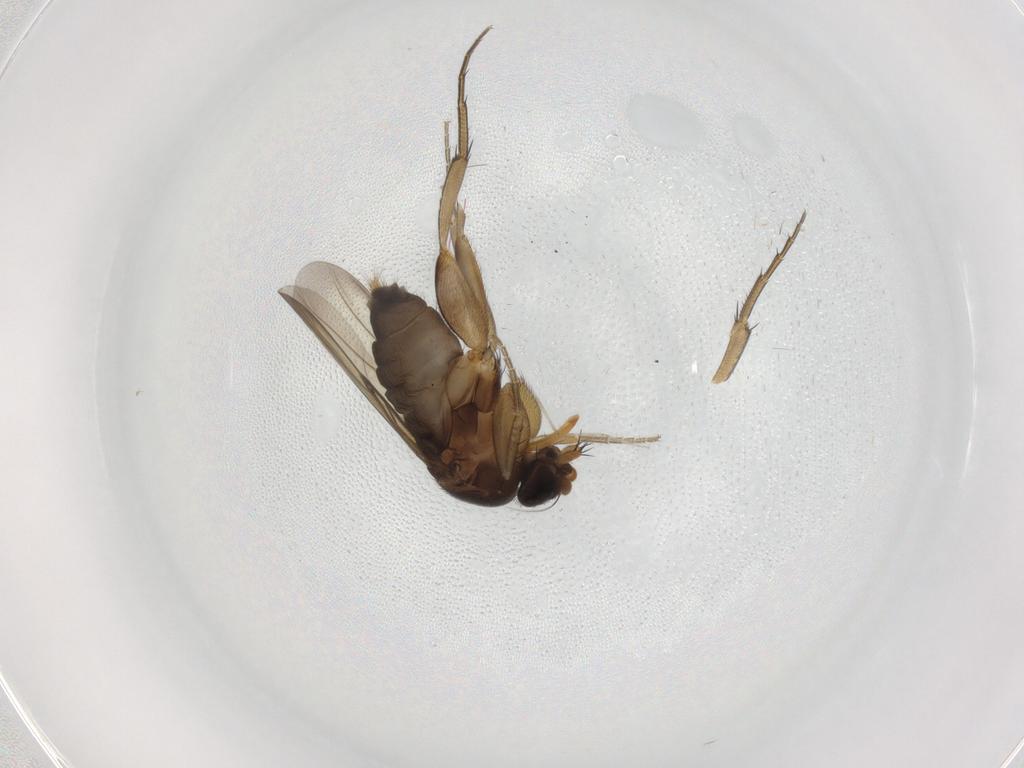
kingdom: Animalia
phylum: Arthropoda
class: Insecta
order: Diptera
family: Phoridae
